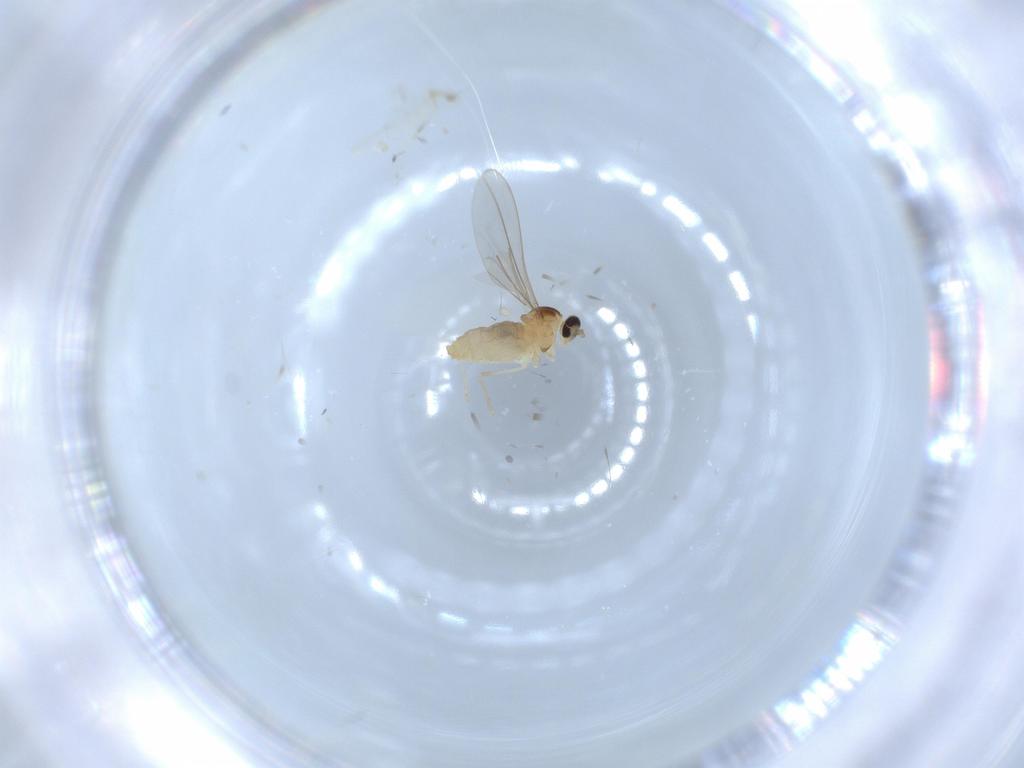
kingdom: Animalia
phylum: Arthropoda
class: Insecta
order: Diptera
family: Cecidomyiidae
